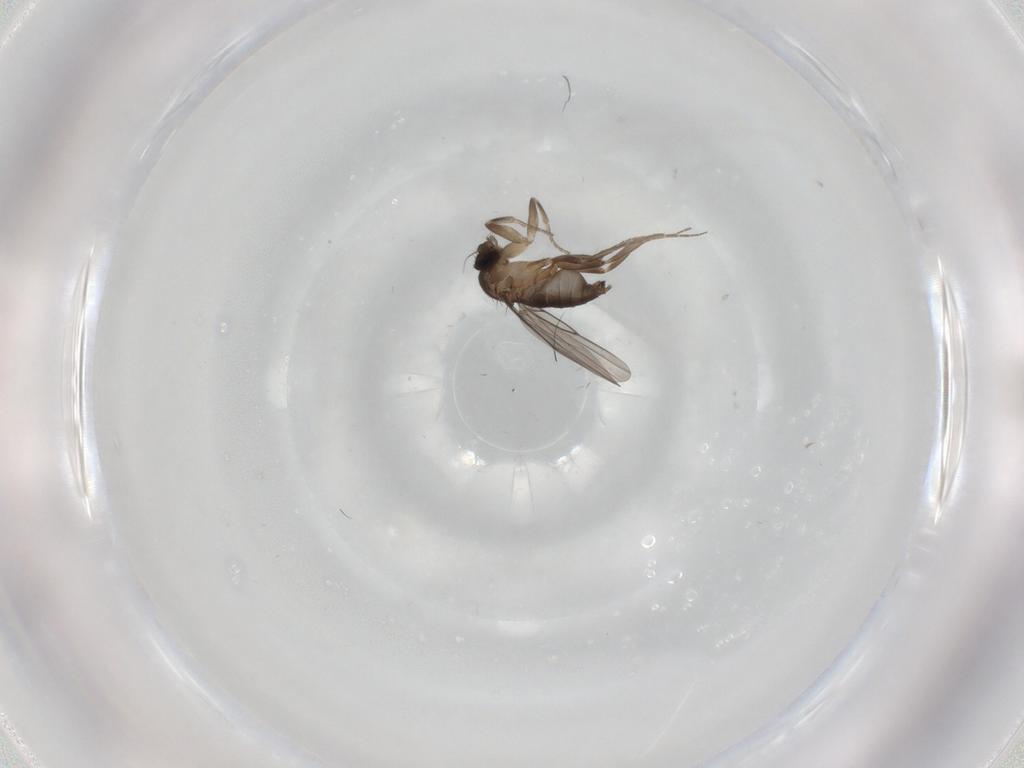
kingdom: Animalia
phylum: Arthropoda
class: Insecta
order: Diptera
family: Phoridae
